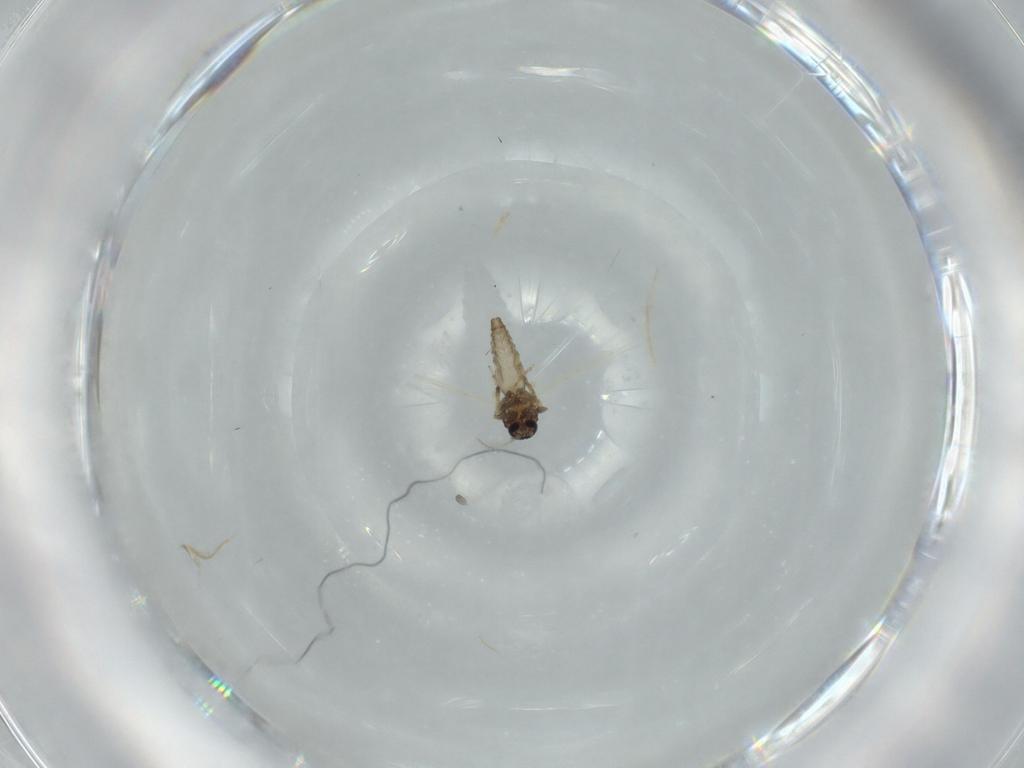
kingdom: Animalia
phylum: Arthropoda
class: Insecta
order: Diptera
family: Ceratopogonidae
